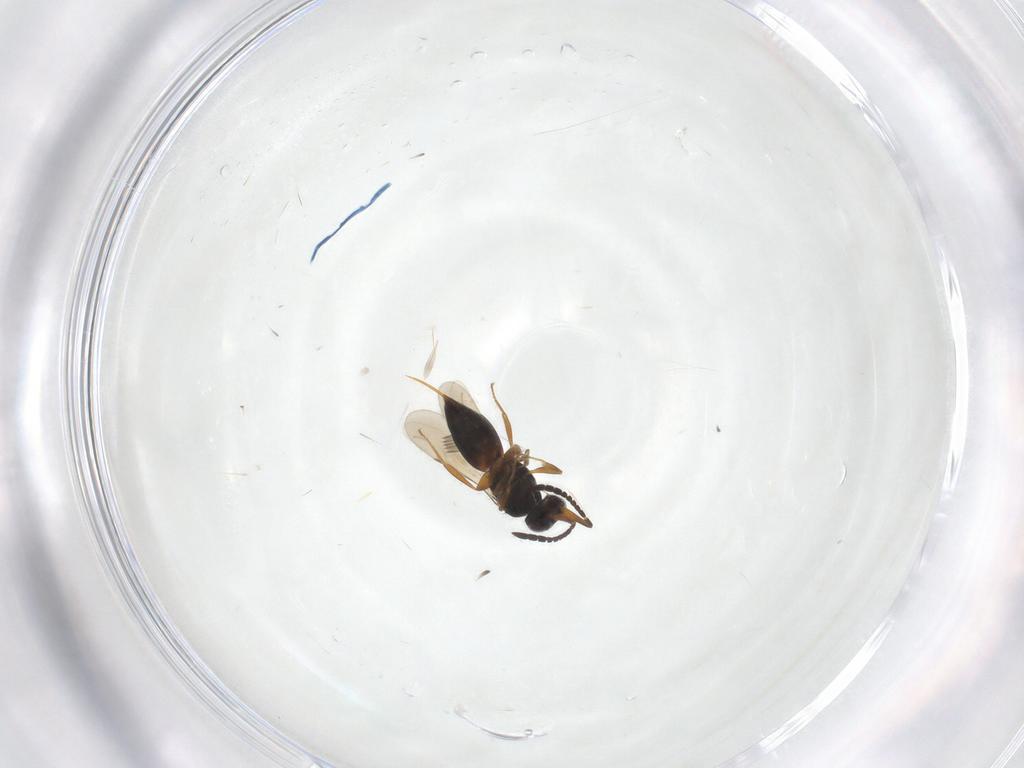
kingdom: Animalia
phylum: Arthropoda
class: Insecta
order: Hymenoptera
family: Ceraphronidae
